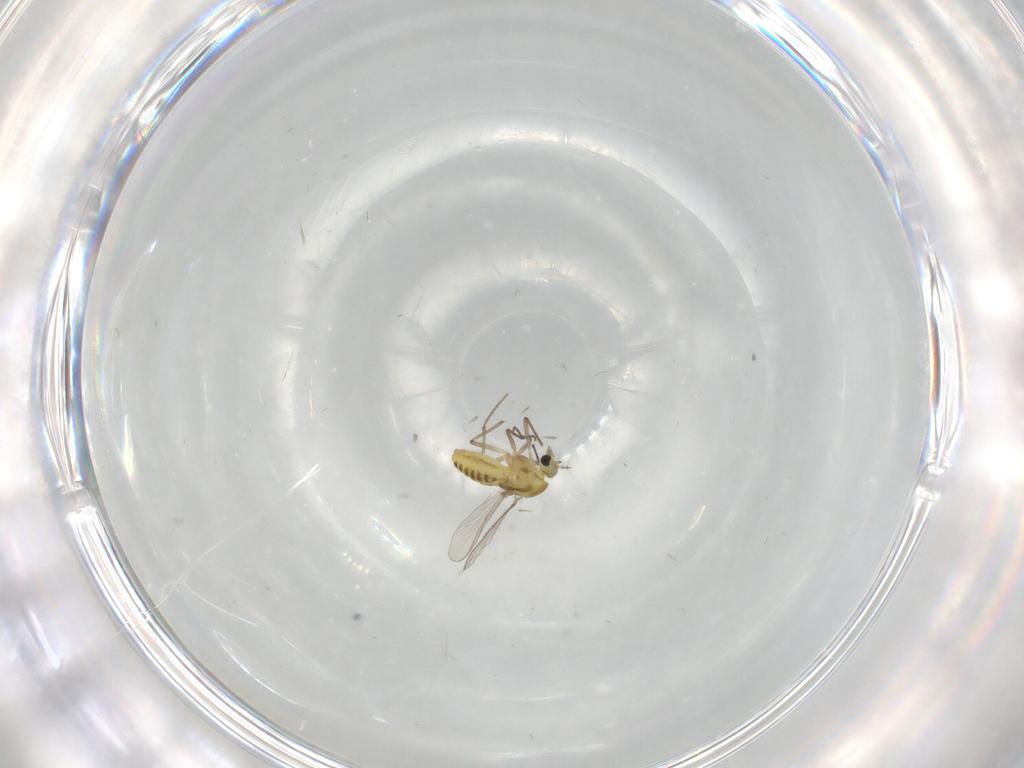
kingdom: Animalia
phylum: Arthropoda
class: Insecta
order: Diptera
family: Chironomidae
